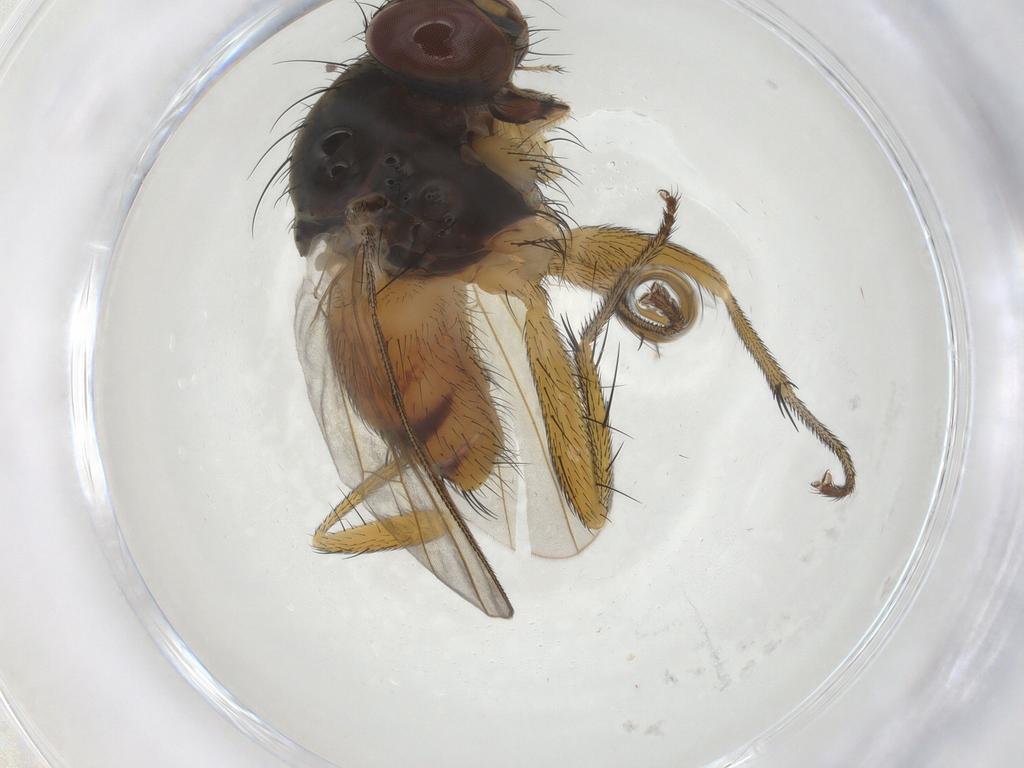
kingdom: Animalia
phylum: Arthropoda
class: Insecta
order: Diptera
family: Muscidae
